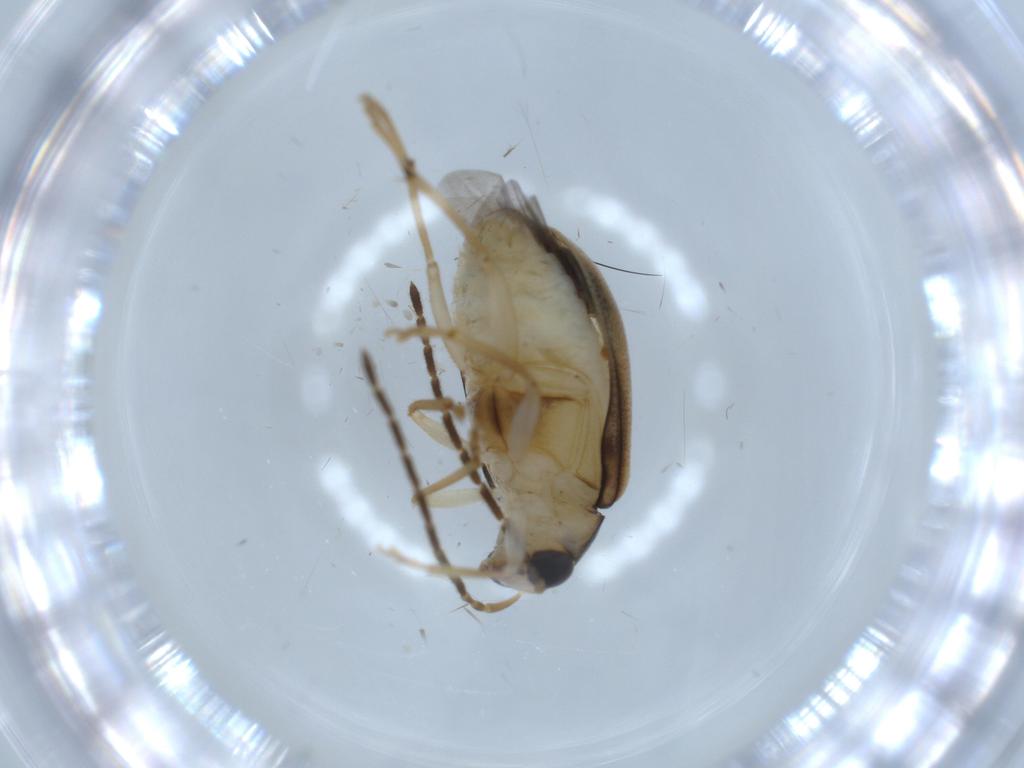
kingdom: Animalia
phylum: Arthropoda
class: Insecta
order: Coleoptera
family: Chrysomelidae
